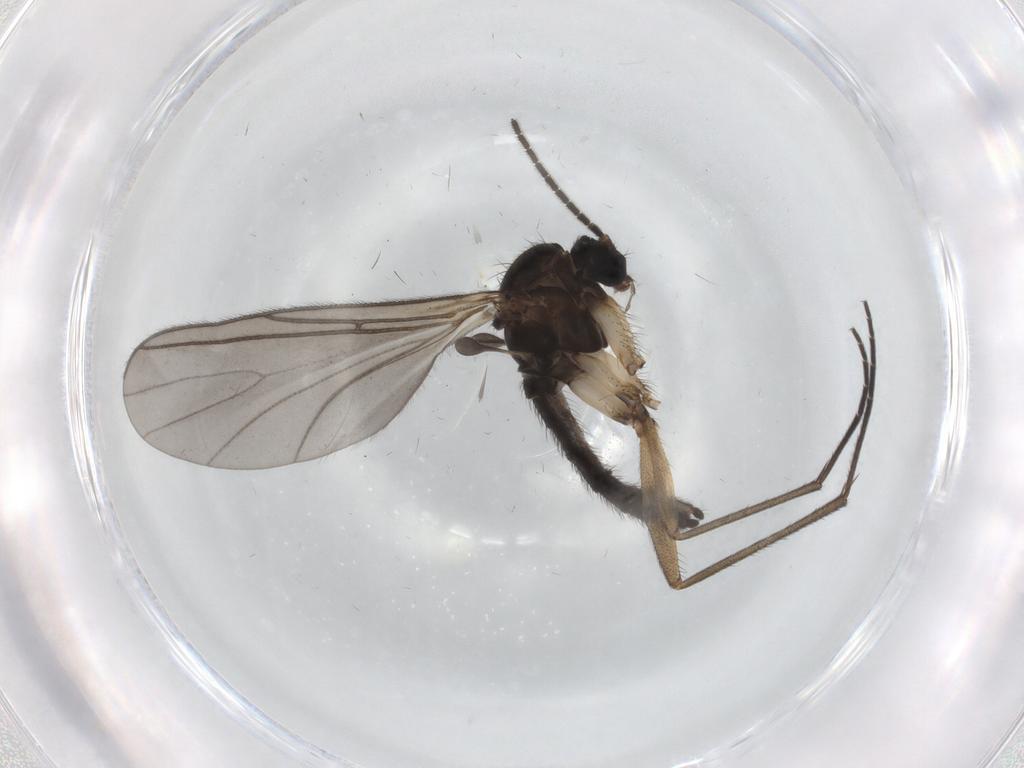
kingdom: Animalia
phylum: Arthropoda
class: Insecta
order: Diptera
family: Sciaridae
